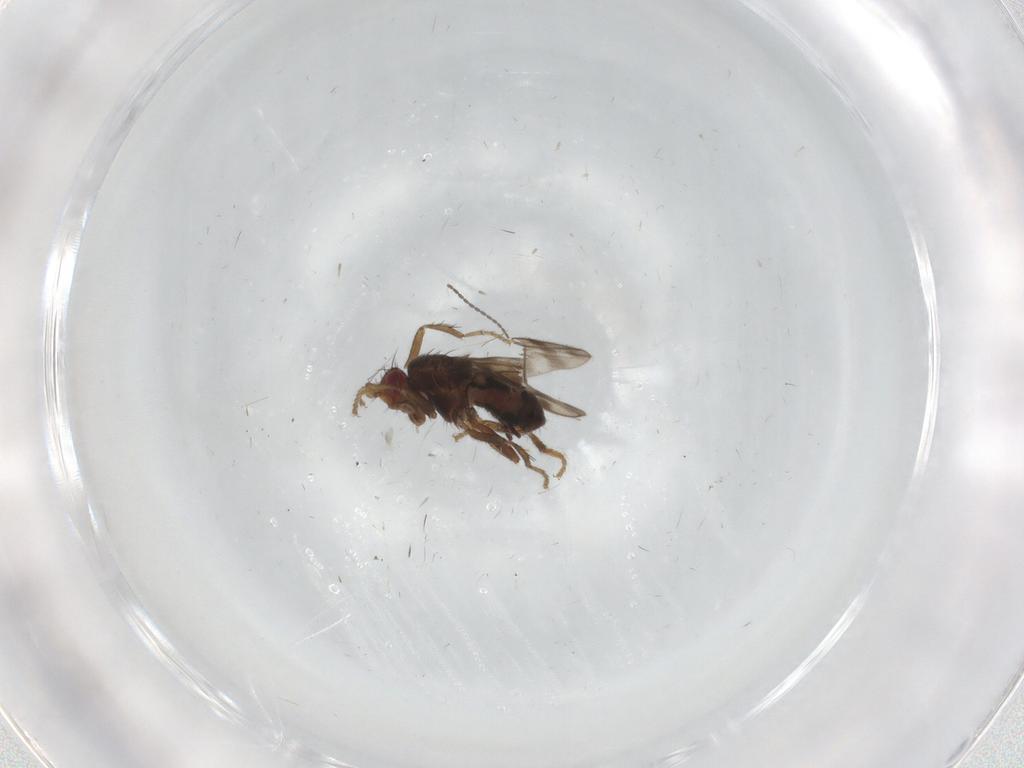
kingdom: Animalia
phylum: Arthropoda
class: Insecta
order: Diptera
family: Sphaeroceridae
